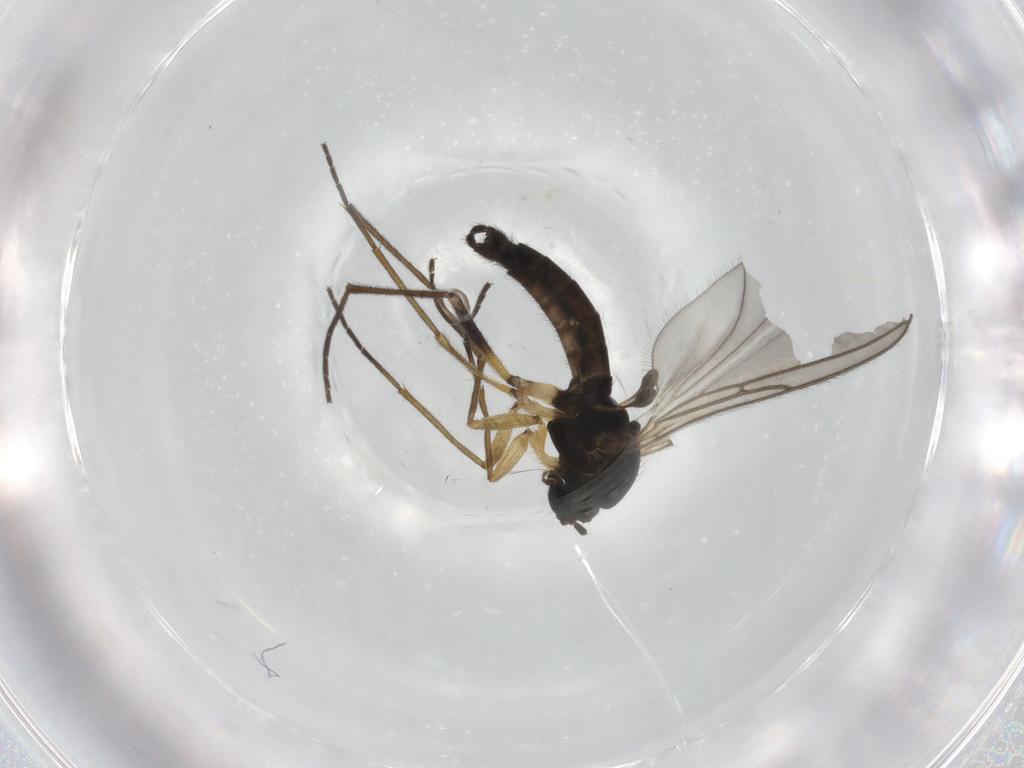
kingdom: Animalia
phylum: Arthropoda
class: Insecta
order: Diptera
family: Sciaridae
